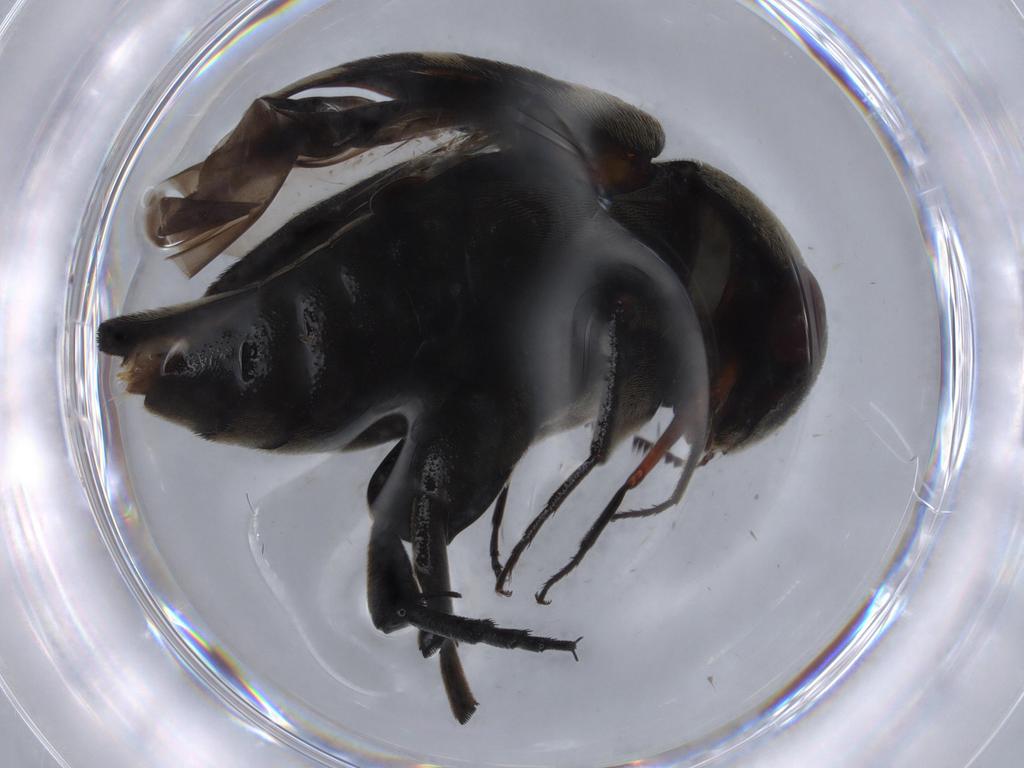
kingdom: Animalia
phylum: Arthropoda
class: Insecta
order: Coleoptera
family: Mordellidae
